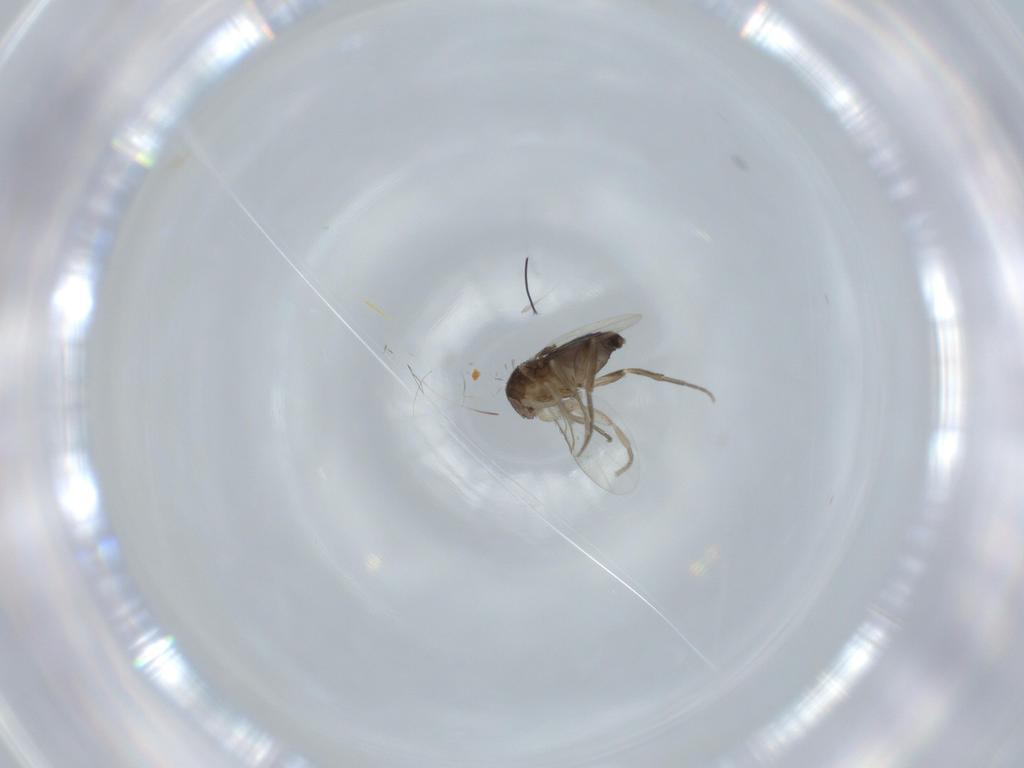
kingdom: Animalia
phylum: Arthropoda
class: Insecta
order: Diptera
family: Phoridae
